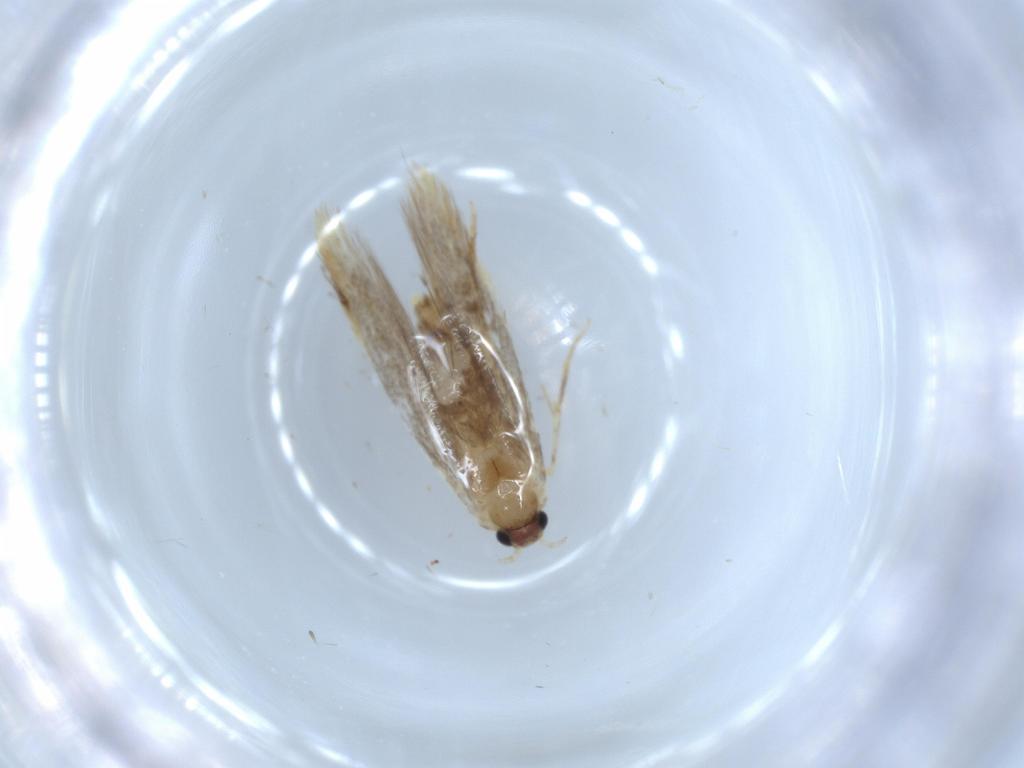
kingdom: Animalia
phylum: Arthropoda
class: Insecta
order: Lepidoptera
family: Tineidae
